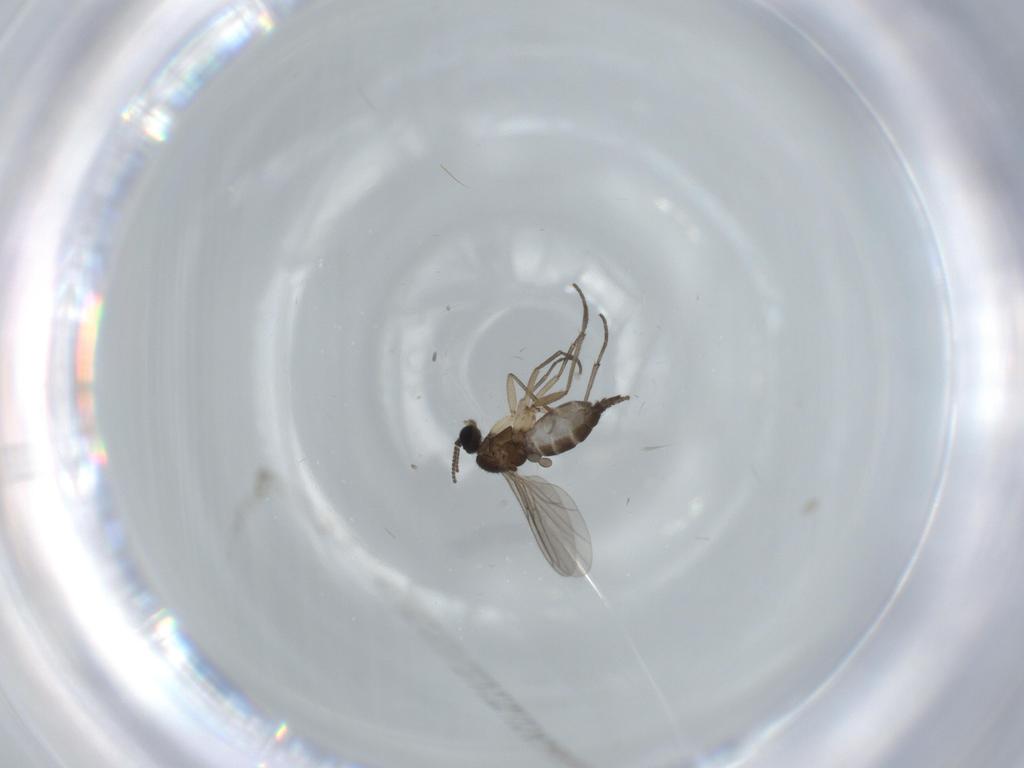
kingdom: Animalia
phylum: Arthropoda
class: Insecta
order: Diptera
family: Sciaridae
